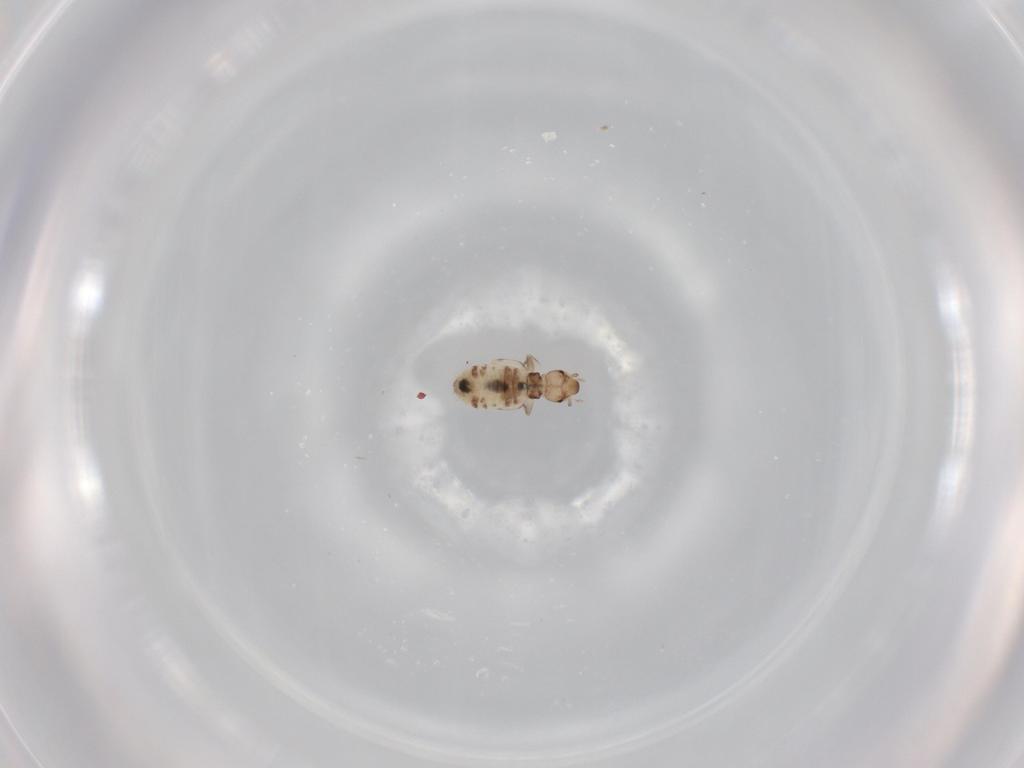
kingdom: Animalia
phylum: Arthropoda
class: Insecta
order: Psocodea
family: Liposcelididae
